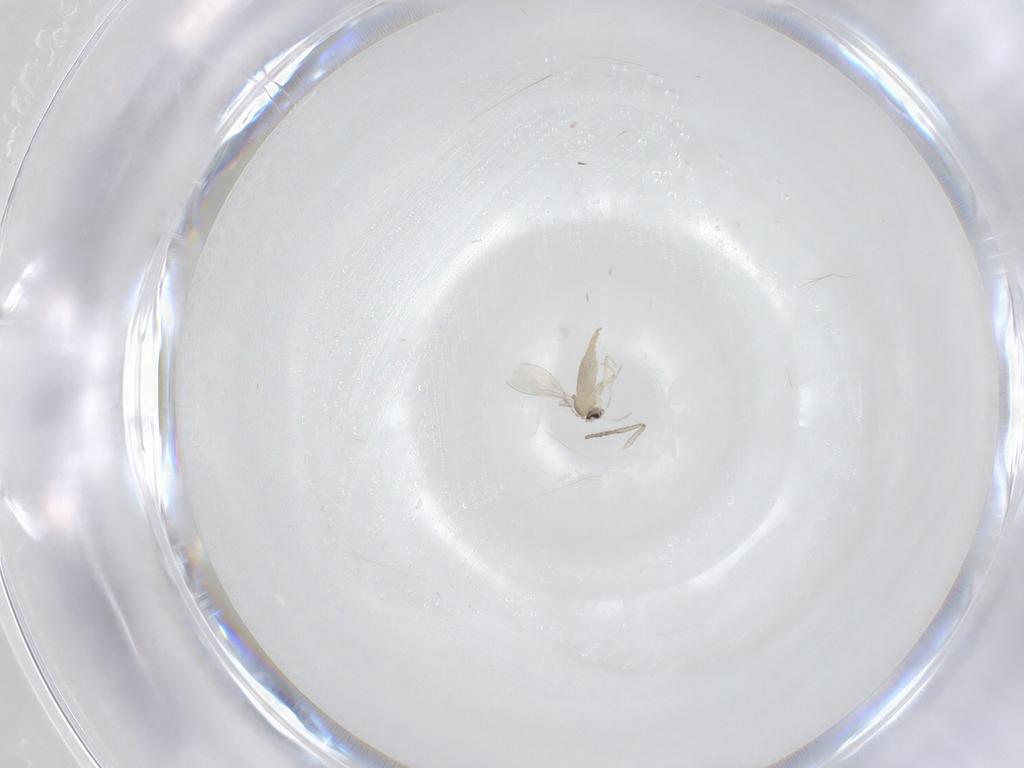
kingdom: Animalia
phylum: Arthropoda
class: Insecta
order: Diptera
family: Cecidomyiidae
